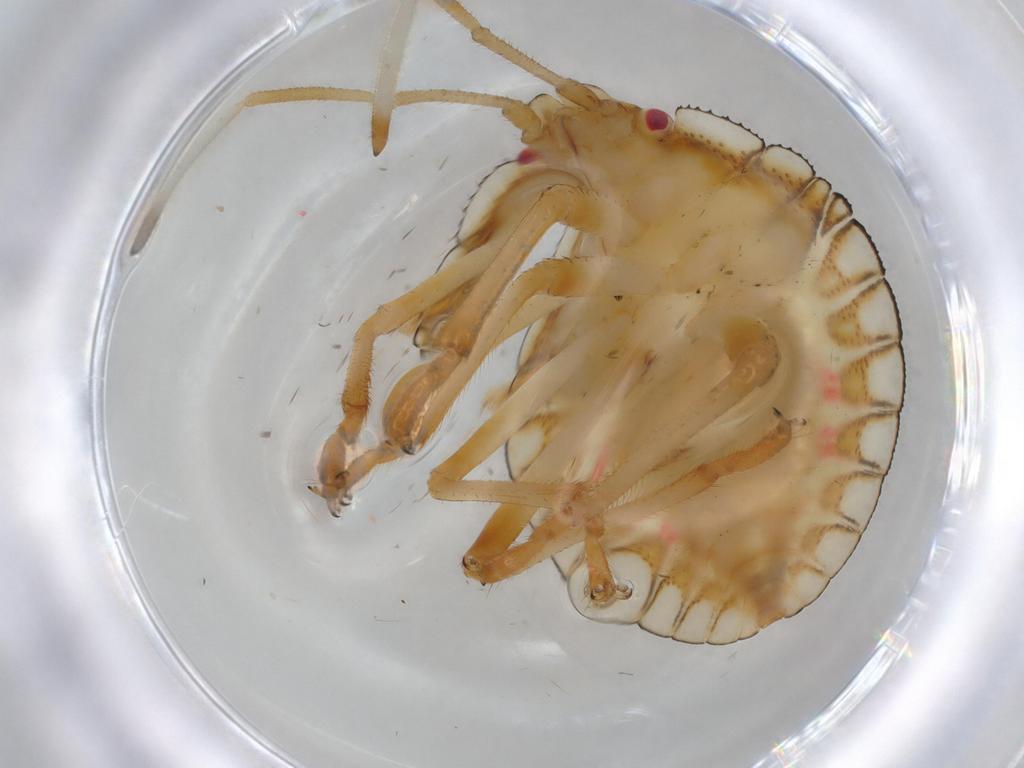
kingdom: Animalia
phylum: Arthropoda
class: Insecta
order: Hemiptera
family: Pentatomidae
